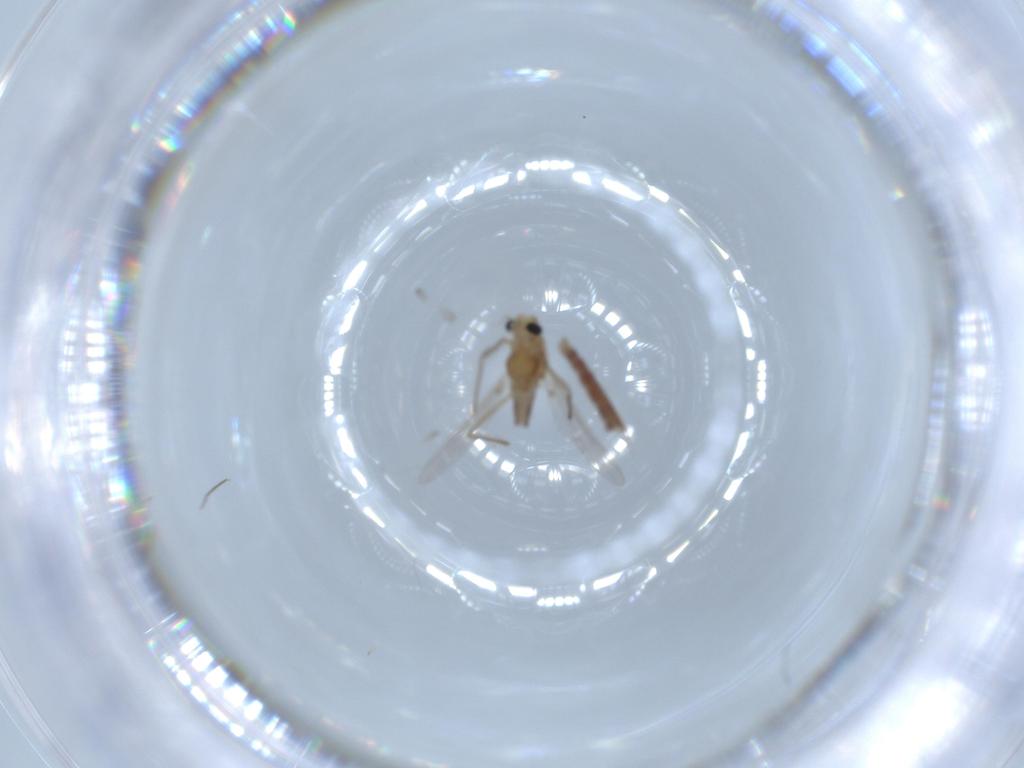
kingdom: Animalia
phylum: Arthropoda
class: Insecta
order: Diptera
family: Chironomidae
